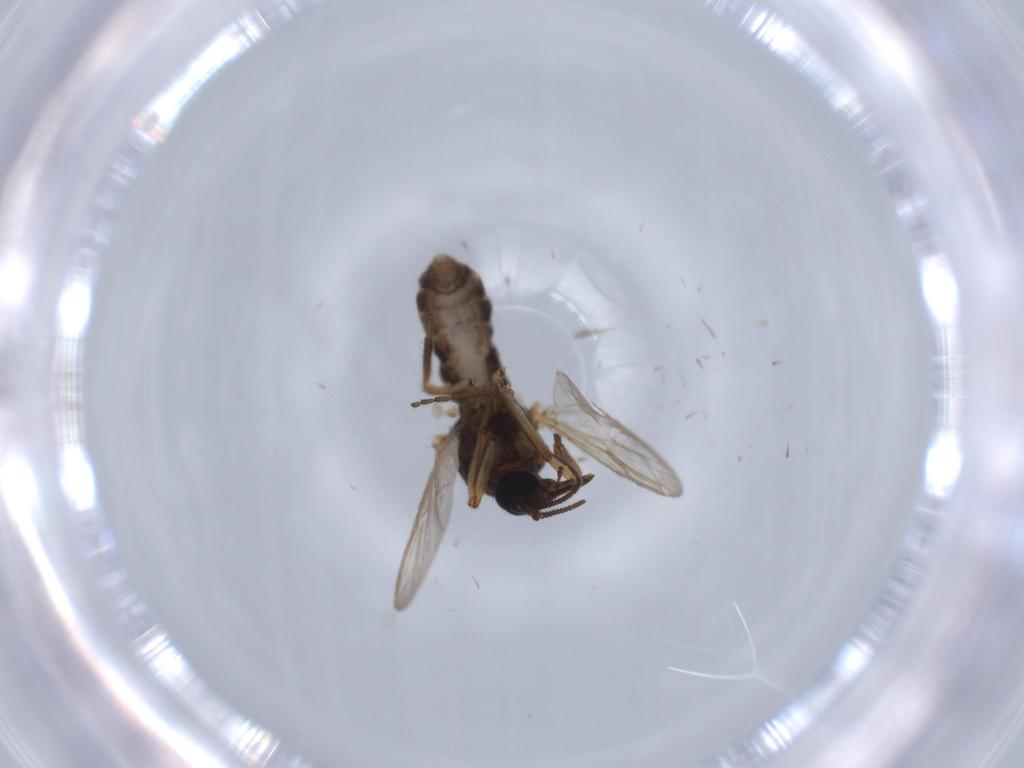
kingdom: Animalia
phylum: Arthropoda
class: Insecta
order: Diptera
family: Ceratopogonidae
